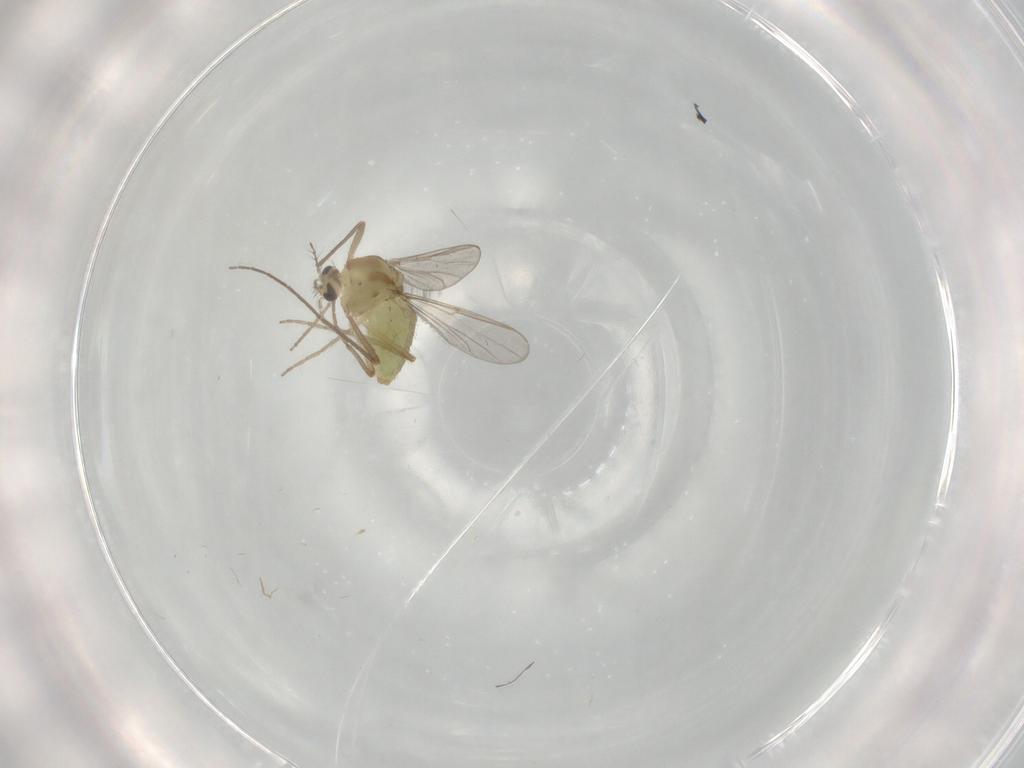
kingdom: Animalia
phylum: Arthropoda
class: Insecta
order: Diptera
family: Chironomidae
